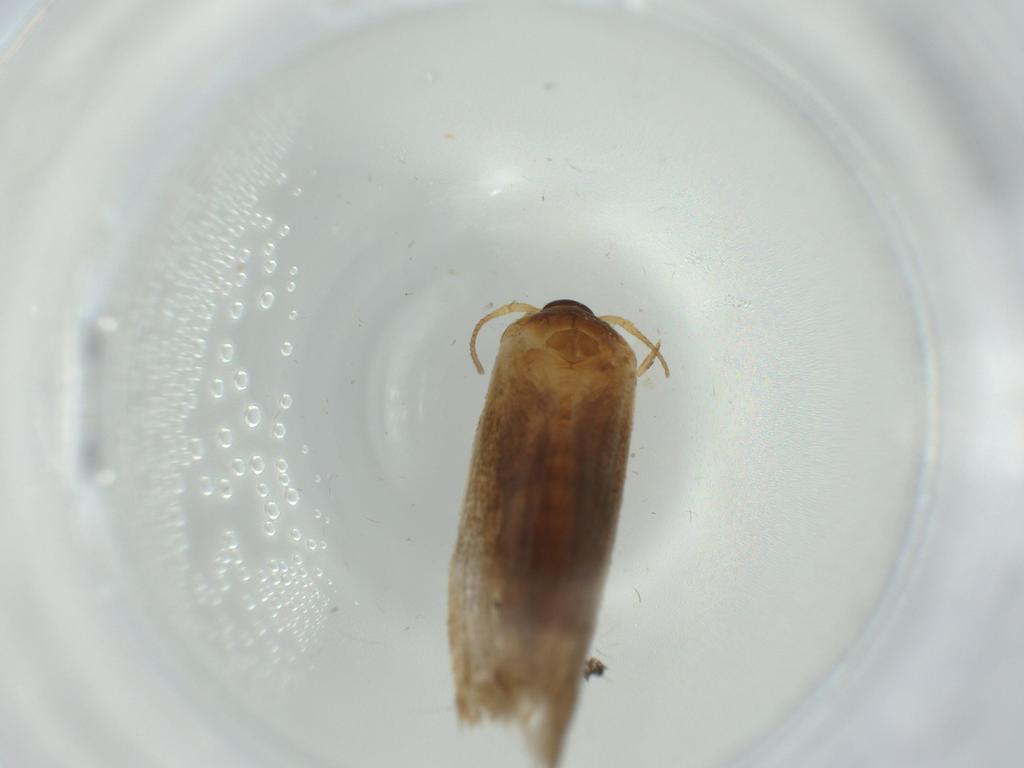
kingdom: Animalia
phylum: Arthropoda
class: Insecta
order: Lepidoptera
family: Blastobasidae
